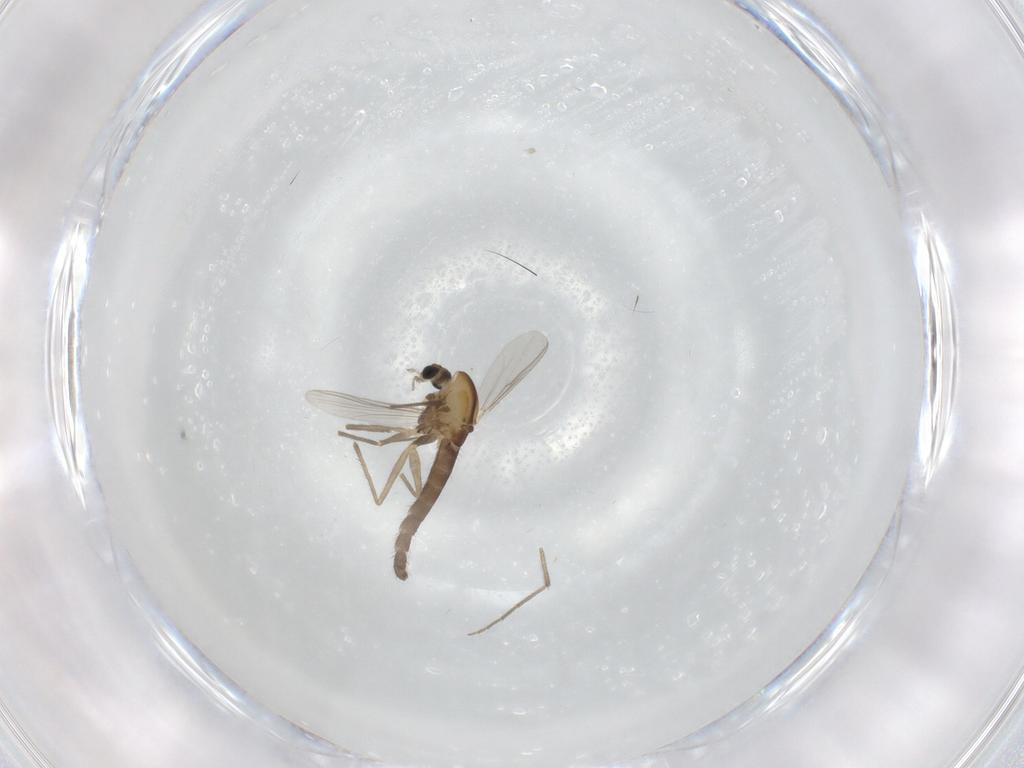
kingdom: Animalia
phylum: Arthropoda
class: Insecta
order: Diptera
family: Chironomidae
